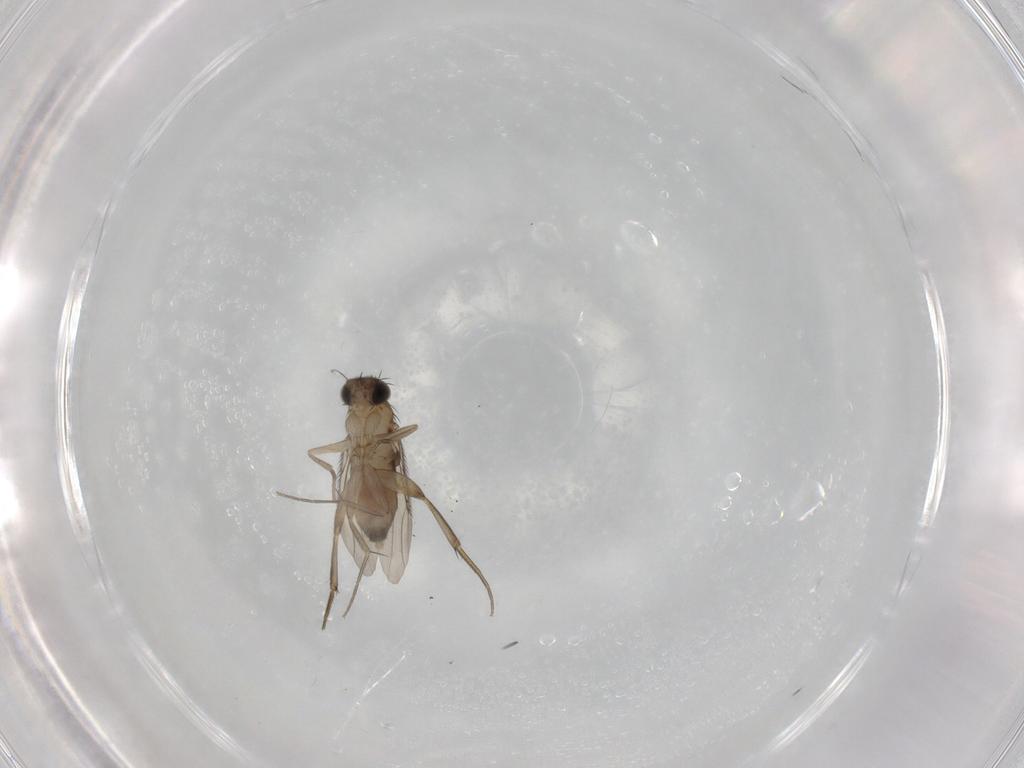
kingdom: Animalia
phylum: Arthropoda
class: Insecta
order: Diptera
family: Phoridae
